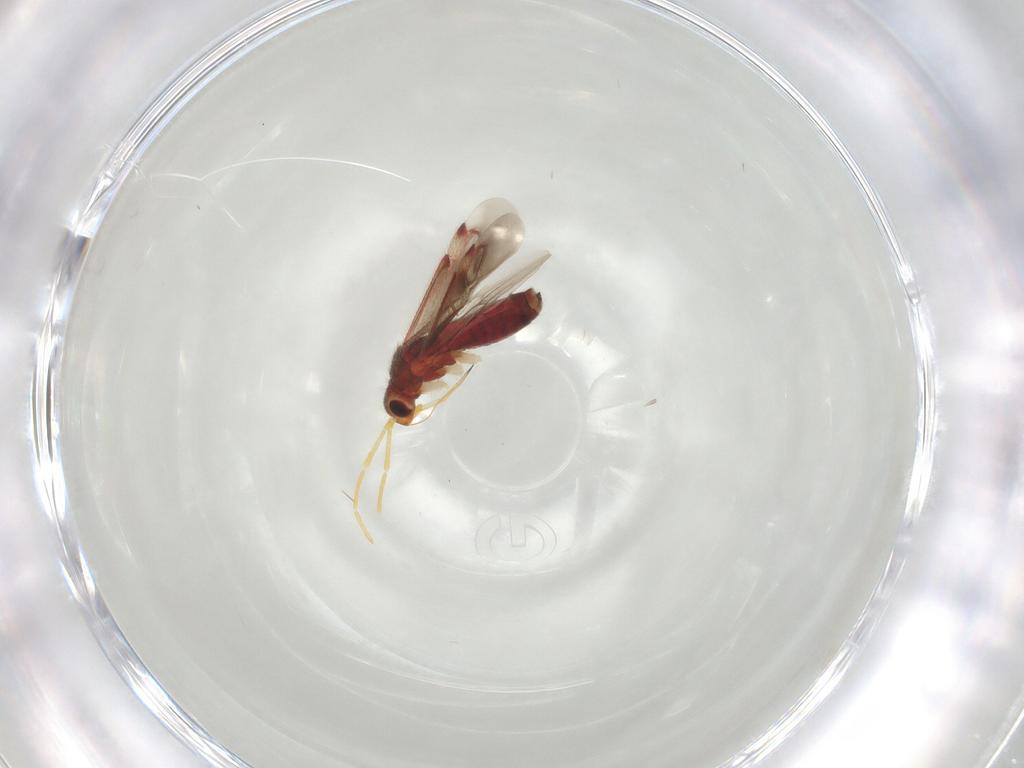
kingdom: Animalia
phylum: Arthropoda
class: Insecta
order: Hemiptera
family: Miridae
